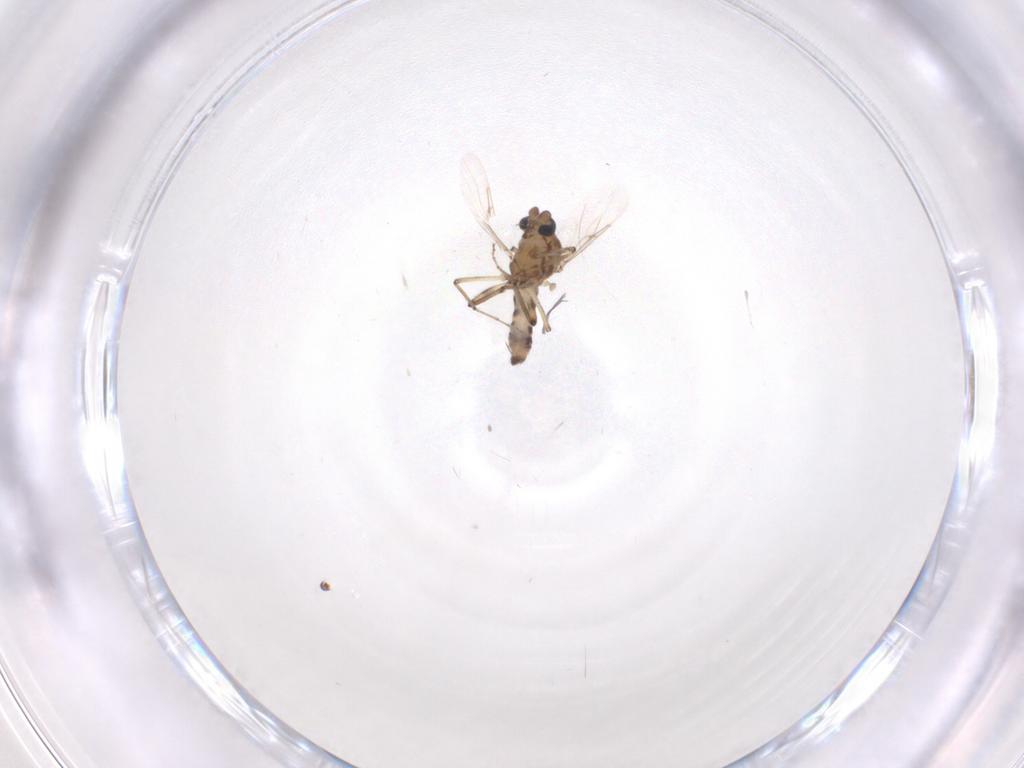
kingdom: Animalia
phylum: Arthropoda
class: Insecta
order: Diptera
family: Ceratopogonidae
